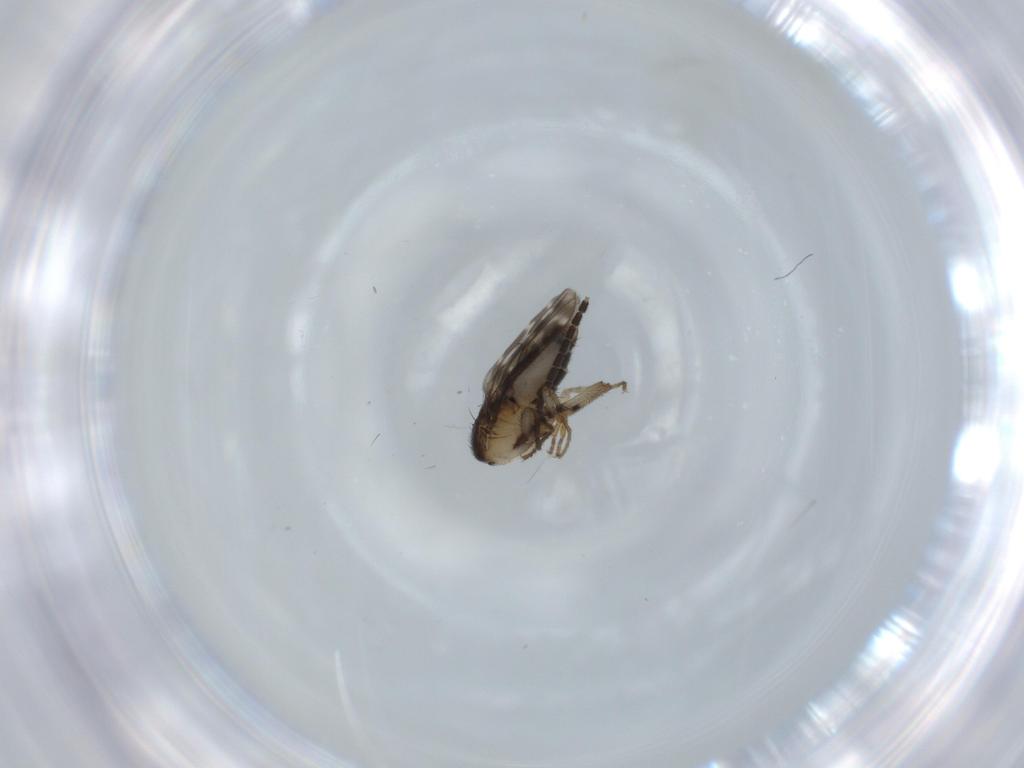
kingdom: Animalia
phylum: Arthropoda
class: Insecta
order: Diptera
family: Sphaeroceridae
